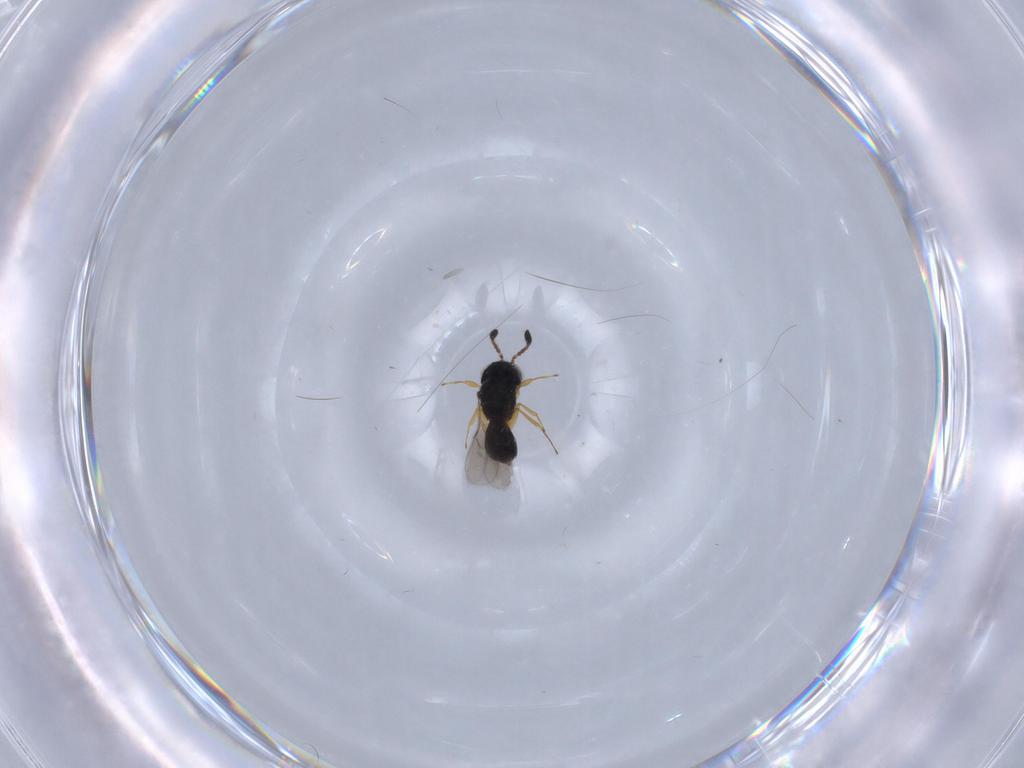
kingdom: Animalia
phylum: Arthropoda
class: Insecta
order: Hymenoptera
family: Scelionidae
